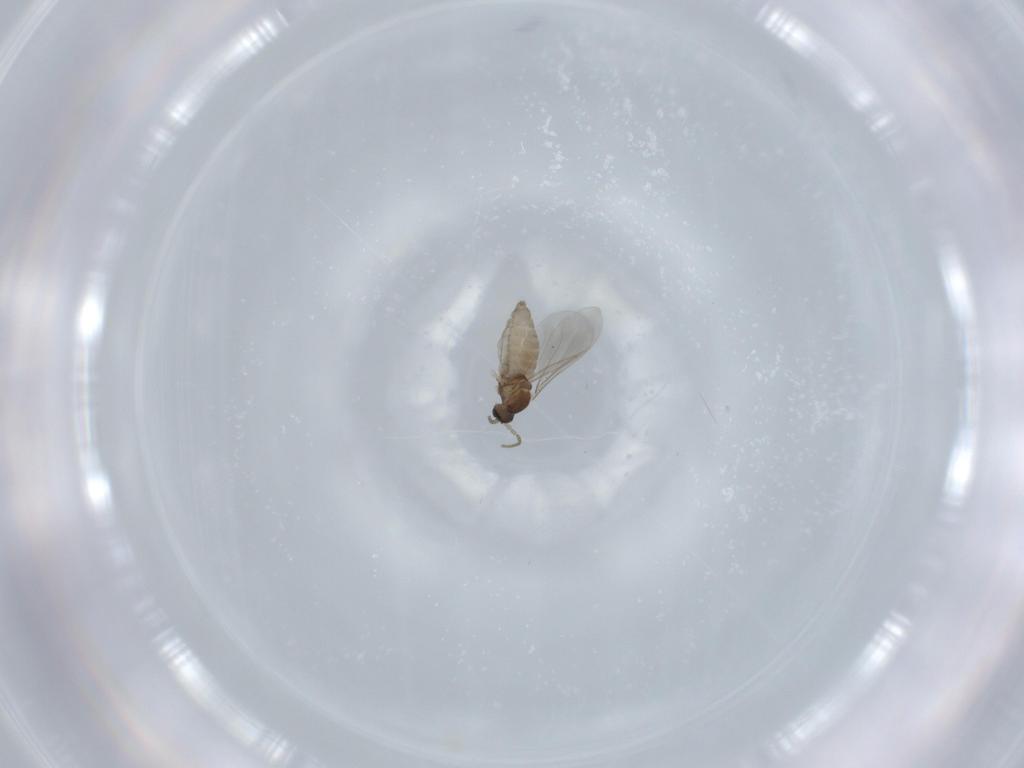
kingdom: Animalia
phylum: Arthropoda
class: Insecta
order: Diptera
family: Cecidomyiidae
